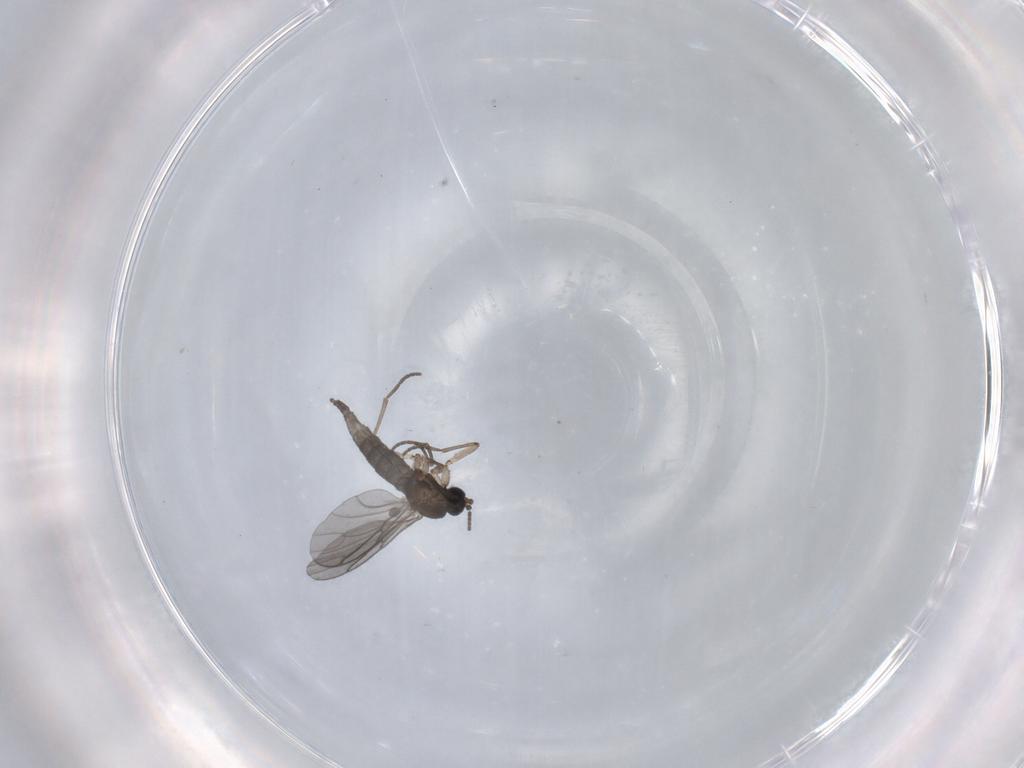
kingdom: Animalia
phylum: Arthropoda
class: Insecta
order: Diptera
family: Sciaridae
